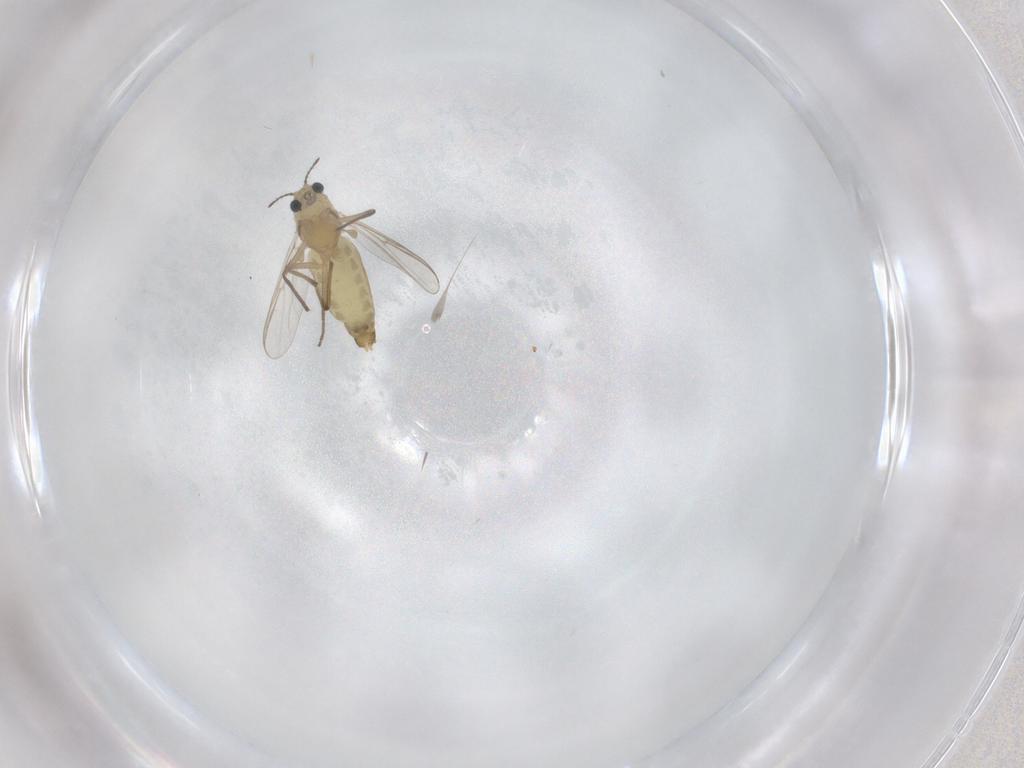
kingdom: Animalia
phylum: Arthropoda
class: Insecta
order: Diptera
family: Chironomidae
